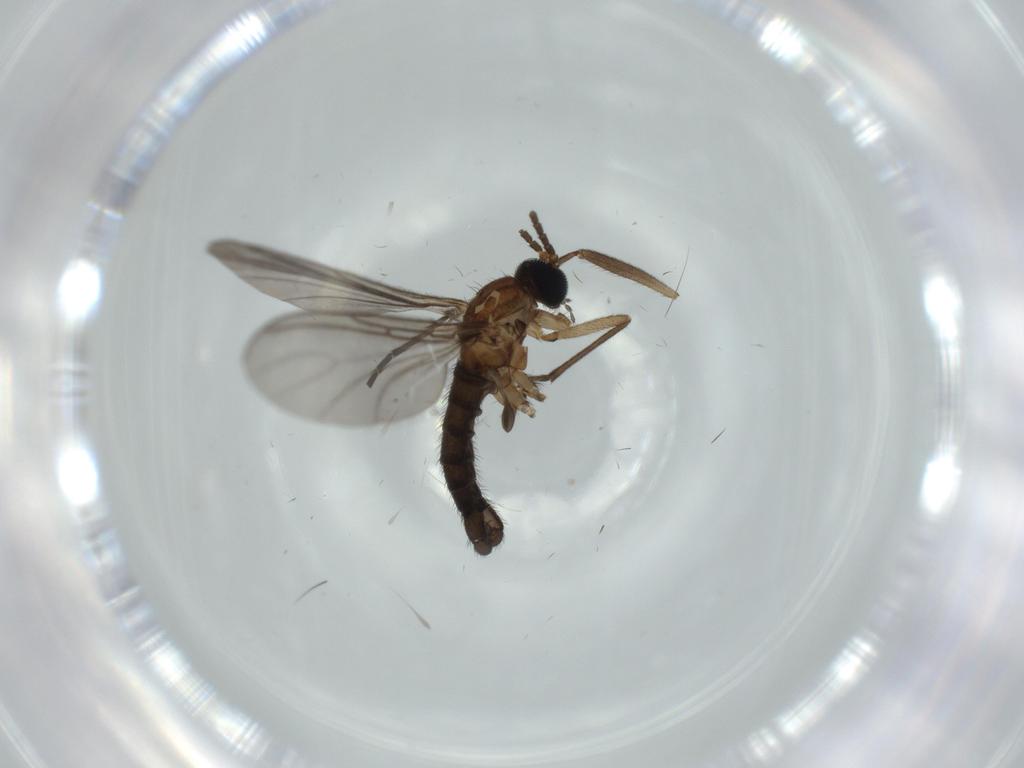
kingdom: Animalia
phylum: Arthropoda
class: Insecta
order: Diptera
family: Sciaridae
